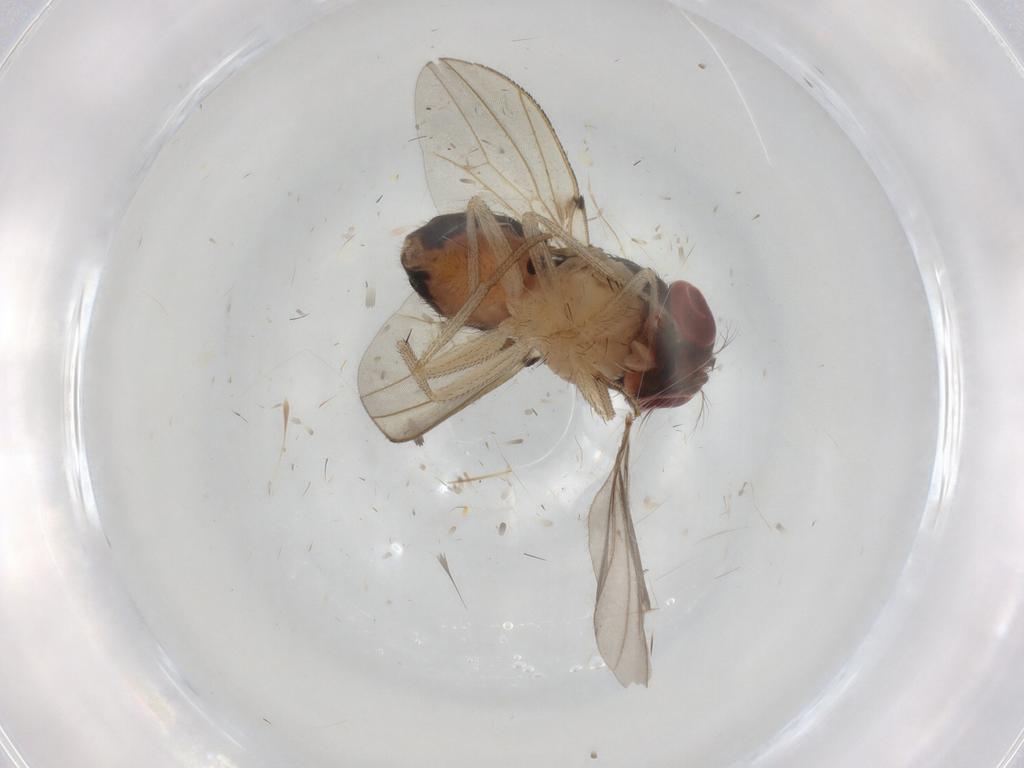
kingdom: Animalia
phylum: Arthropoda
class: Insecta
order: Diptera
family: Drosophilidae
